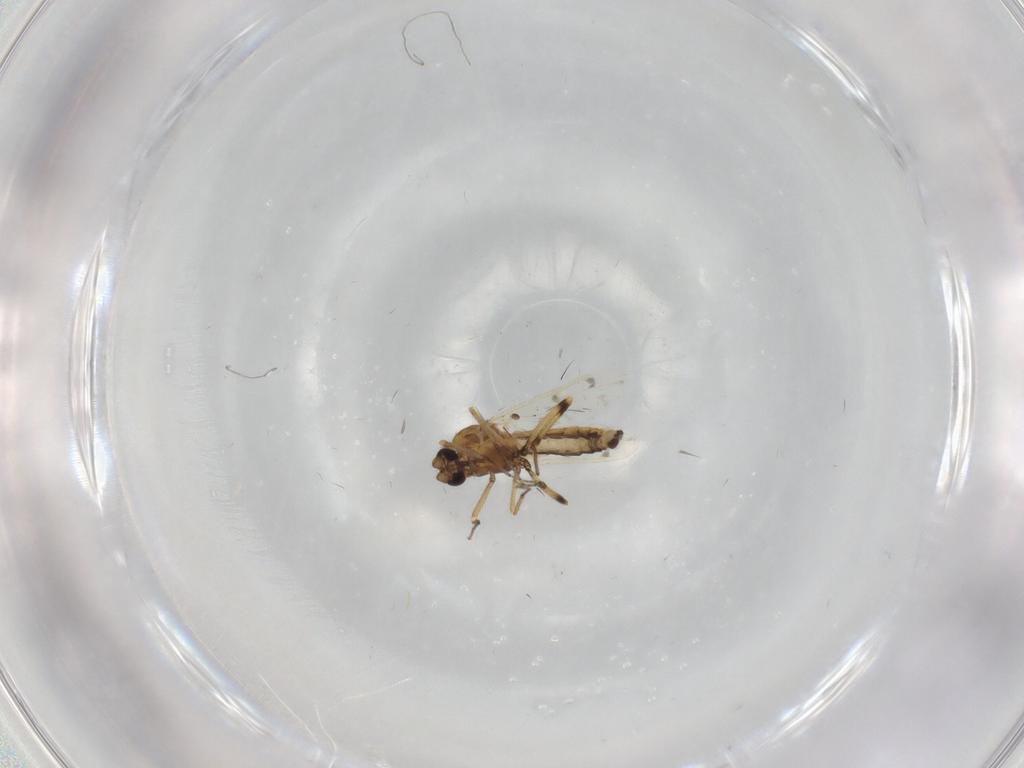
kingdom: Animalia
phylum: Arthropoda
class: Insecta
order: Diptera
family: Ceratopogonidae
